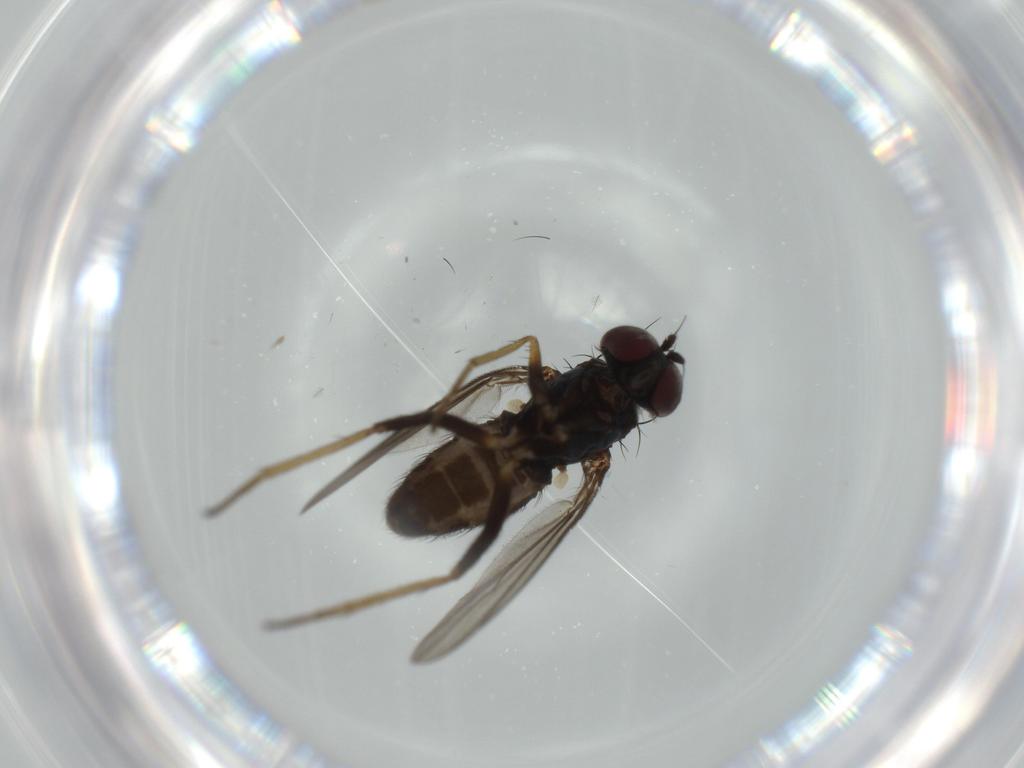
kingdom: Animalia
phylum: Arthropoda
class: Insecta
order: Diptera
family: Dolichopodidae
